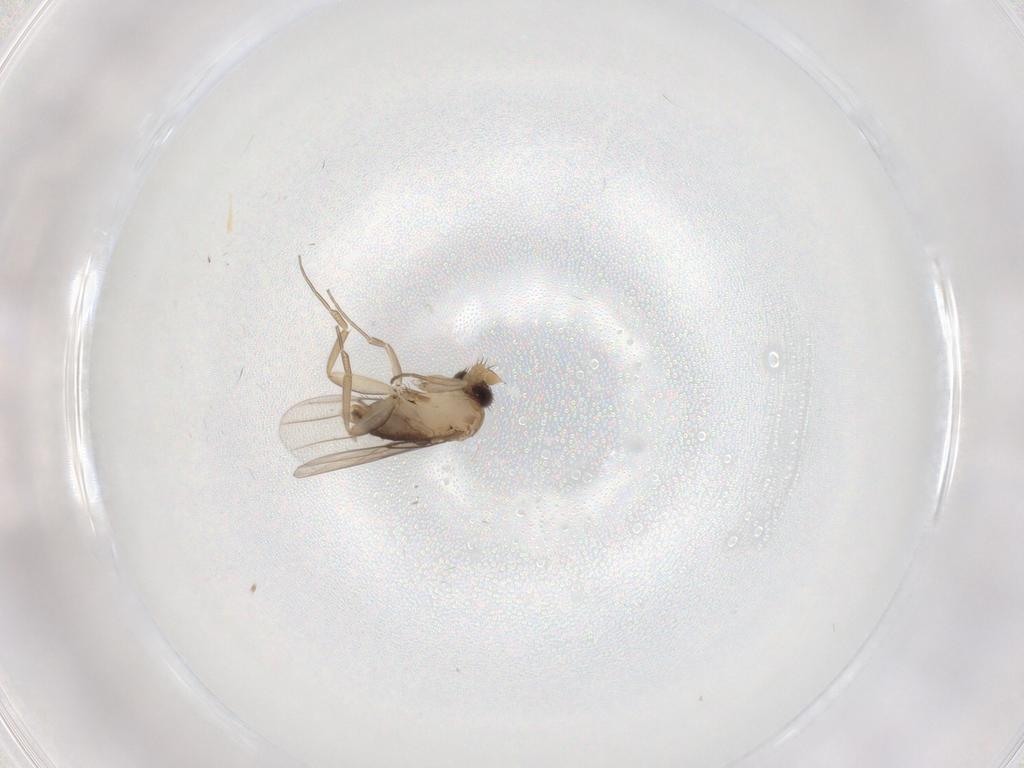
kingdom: Animalia
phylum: Arthropoda
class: Insecta
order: Diptera
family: Phoridae
